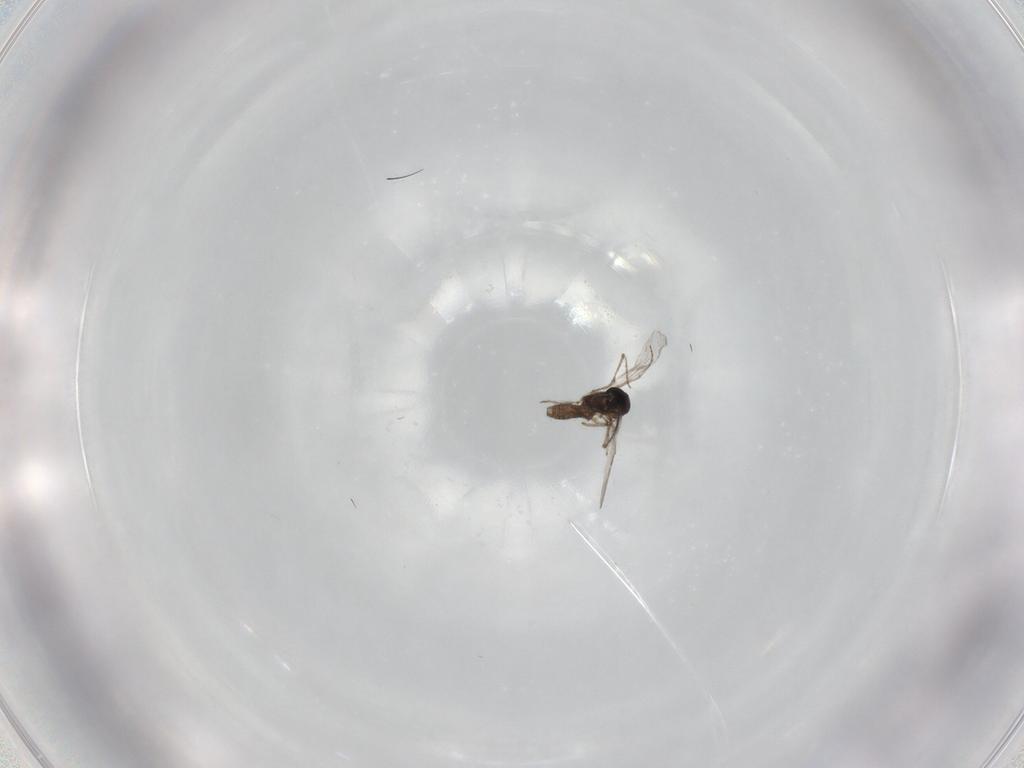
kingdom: Animalia
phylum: Arthropoda
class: Insecta
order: Diptera
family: Ceratopogonidae
